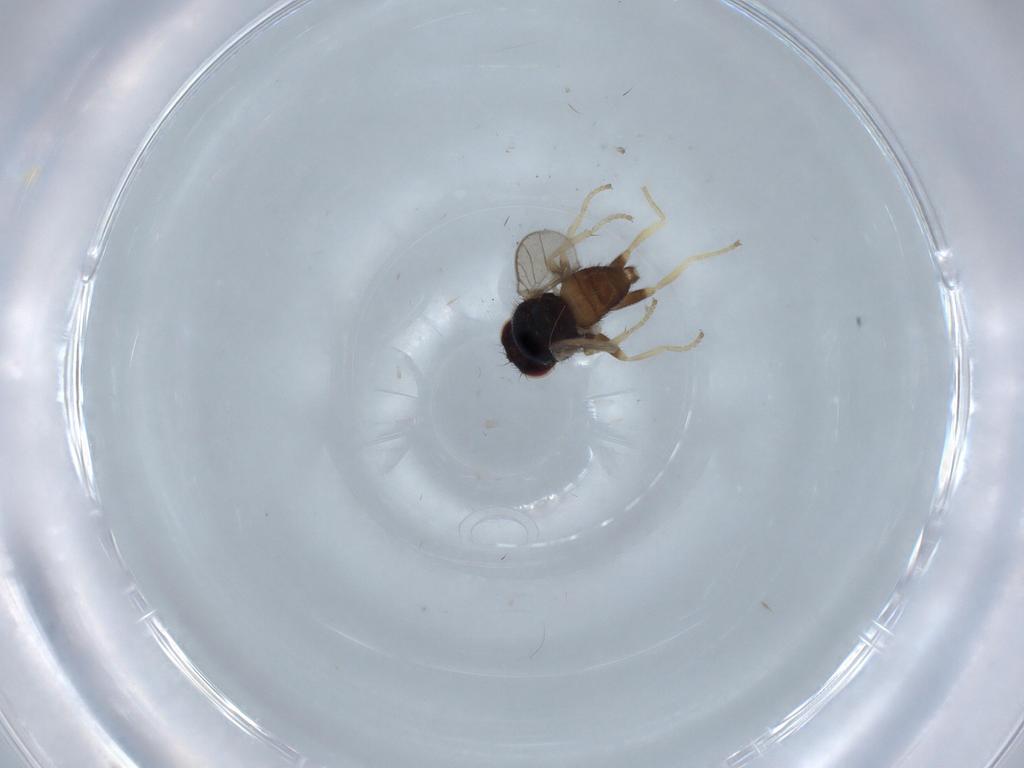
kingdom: Animalia
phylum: Arthropoda
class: Insecta
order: Diptera
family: Chloropidae
